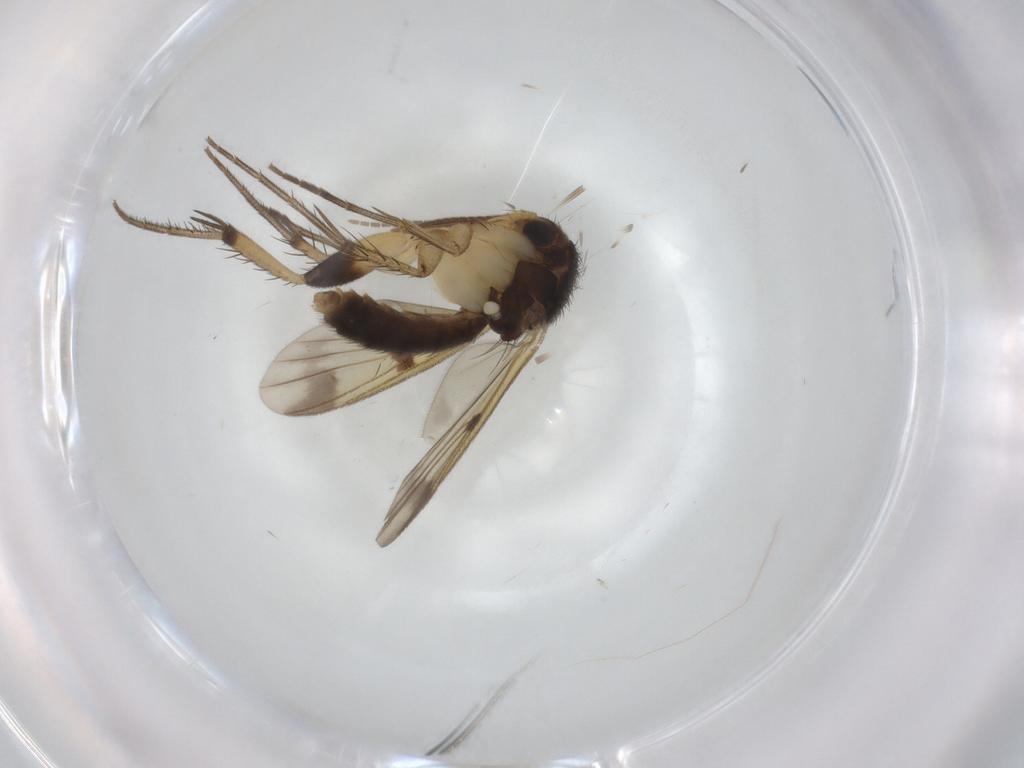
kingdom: Animalia
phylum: Arthropoda
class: Insecta
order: Diptera
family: Mycetophilidae
